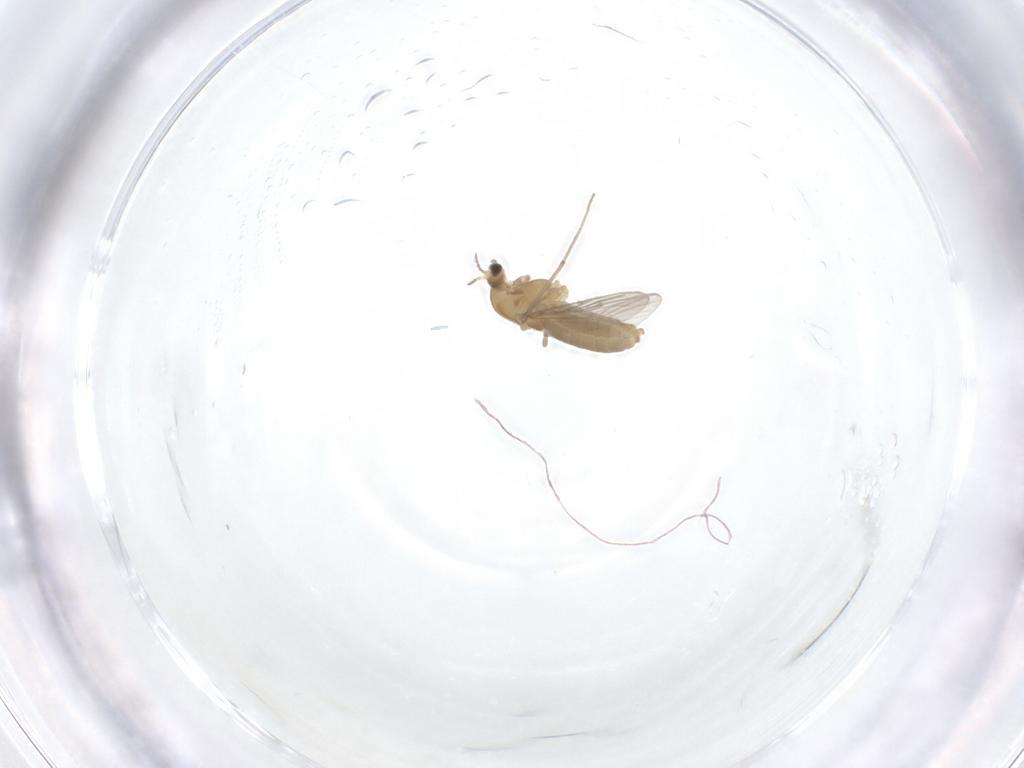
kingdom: Animalia
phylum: Arthropoda
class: Insecta
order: Diptera
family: Chironomidae
